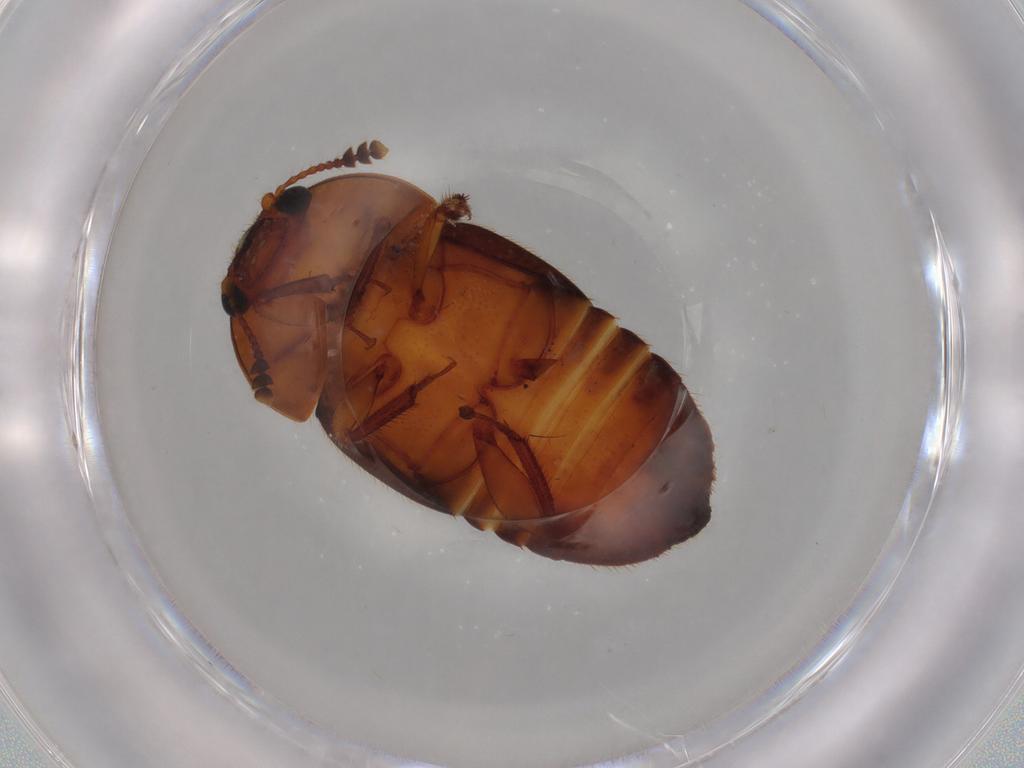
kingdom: Animalia
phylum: Arthropoda
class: Insecta
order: Coleoptera
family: Nitidulidae
